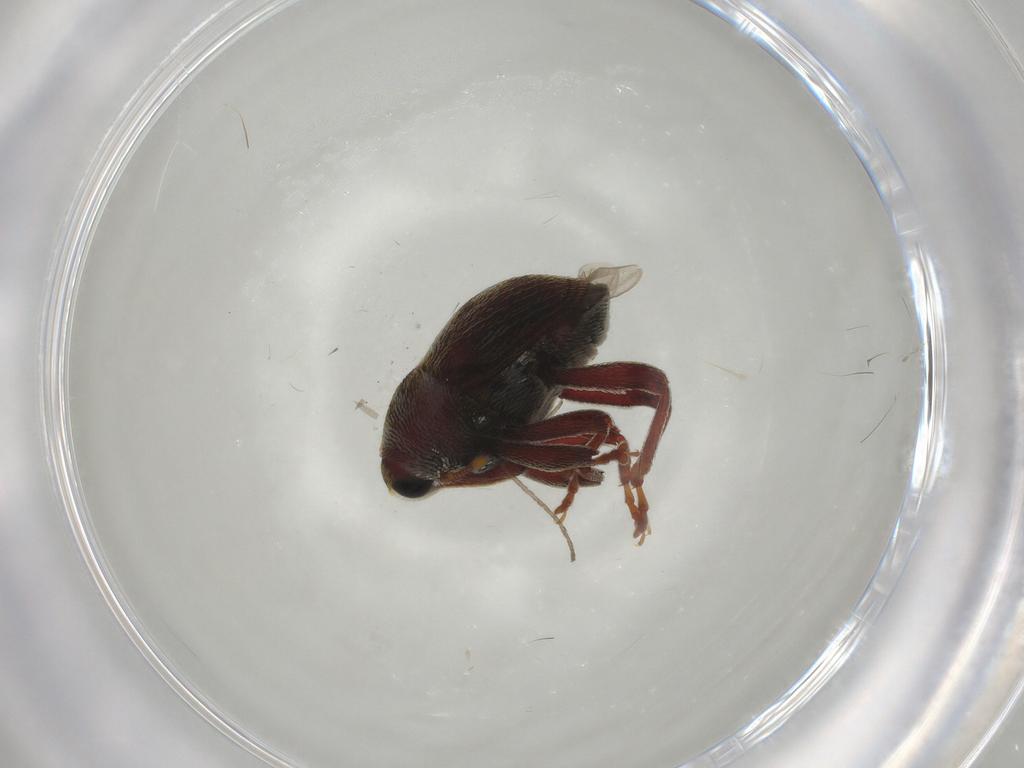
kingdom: Animalia
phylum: Arthropoda
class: Insecta
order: Coleoptera
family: Curculionidae
